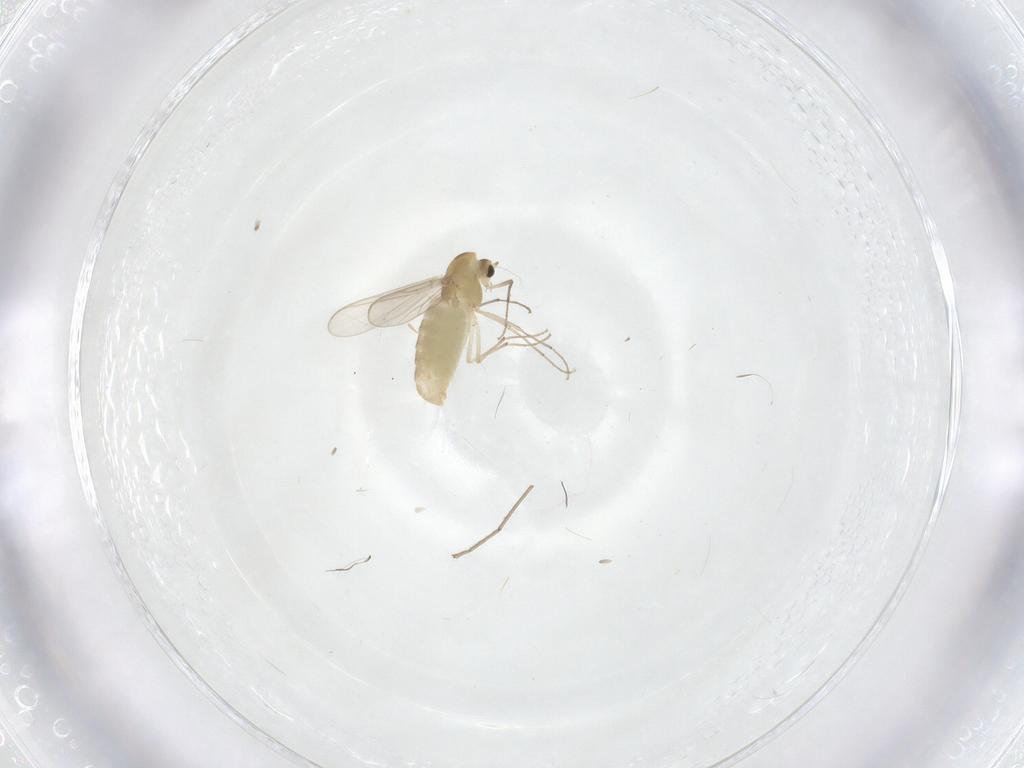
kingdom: Animalia
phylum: Arthropoda
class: Insecta
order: Diptera
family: Chironomidae
